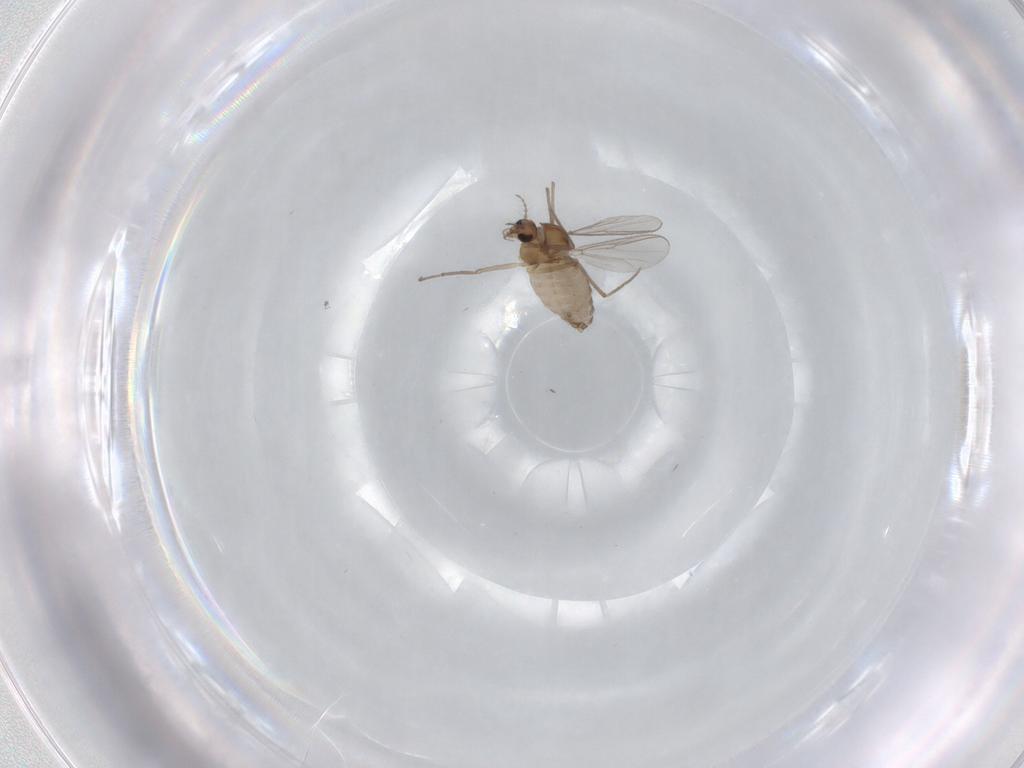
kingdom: Animalia
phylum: Arthropoda
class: Insecta
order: Diptera
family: Chironomidae
